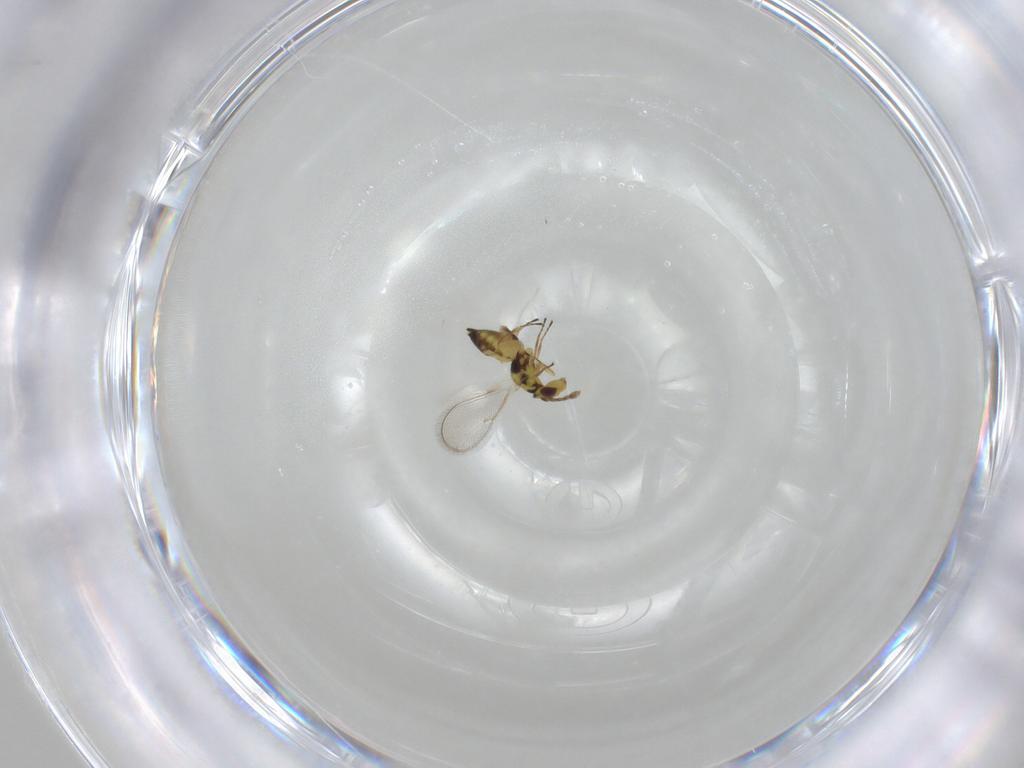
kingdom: Animalia
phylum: Arthropoda
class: Insecta
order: Hymenoptera
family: Eulophidae
